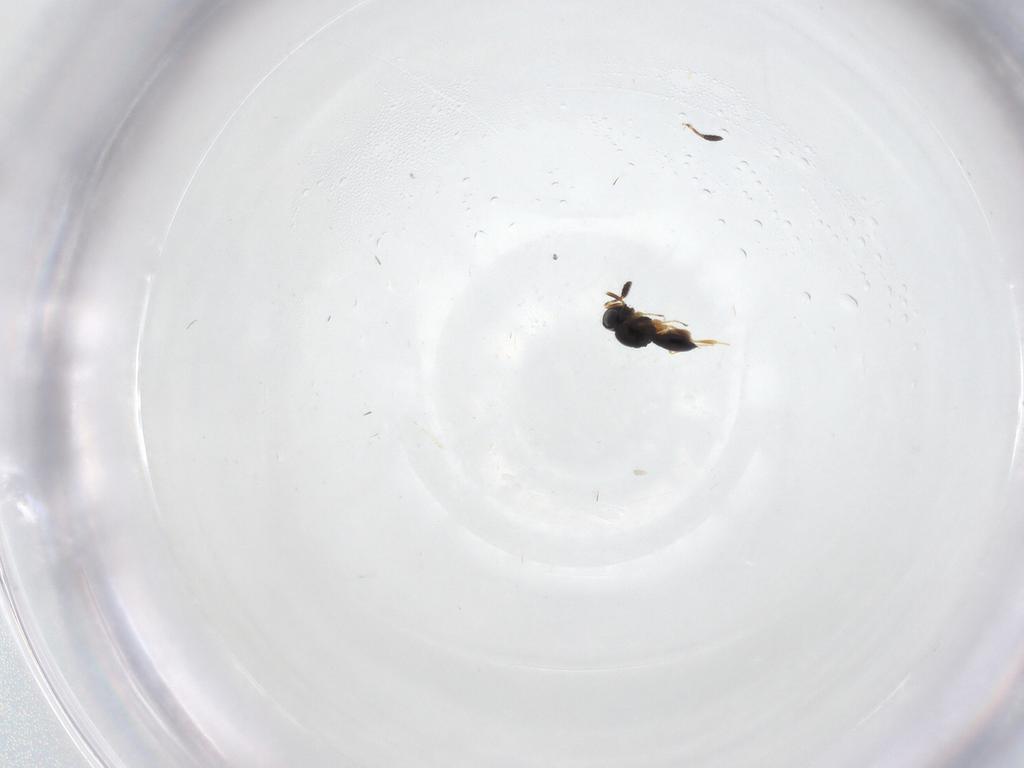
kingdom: Animalia
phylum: Arthropoda
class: Insecta
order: Hymenoptera
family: Scelionidae
